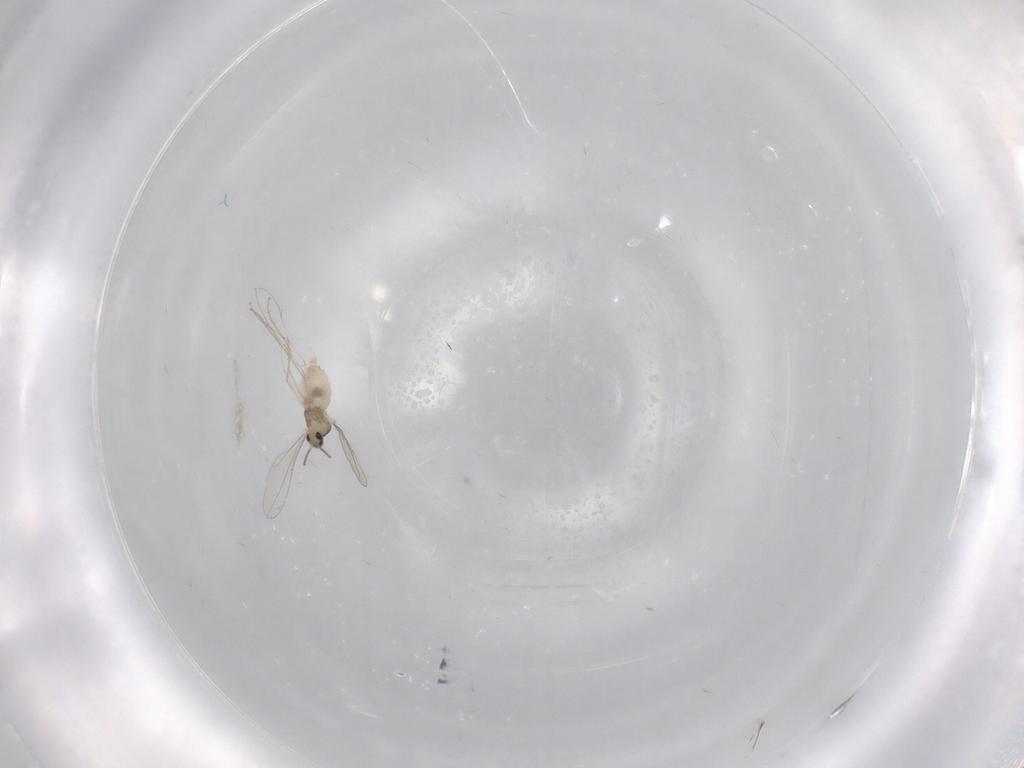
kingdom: Animalia
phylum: Arthropoda
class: Insecta
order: Diptera
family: Cecidomyiidae
